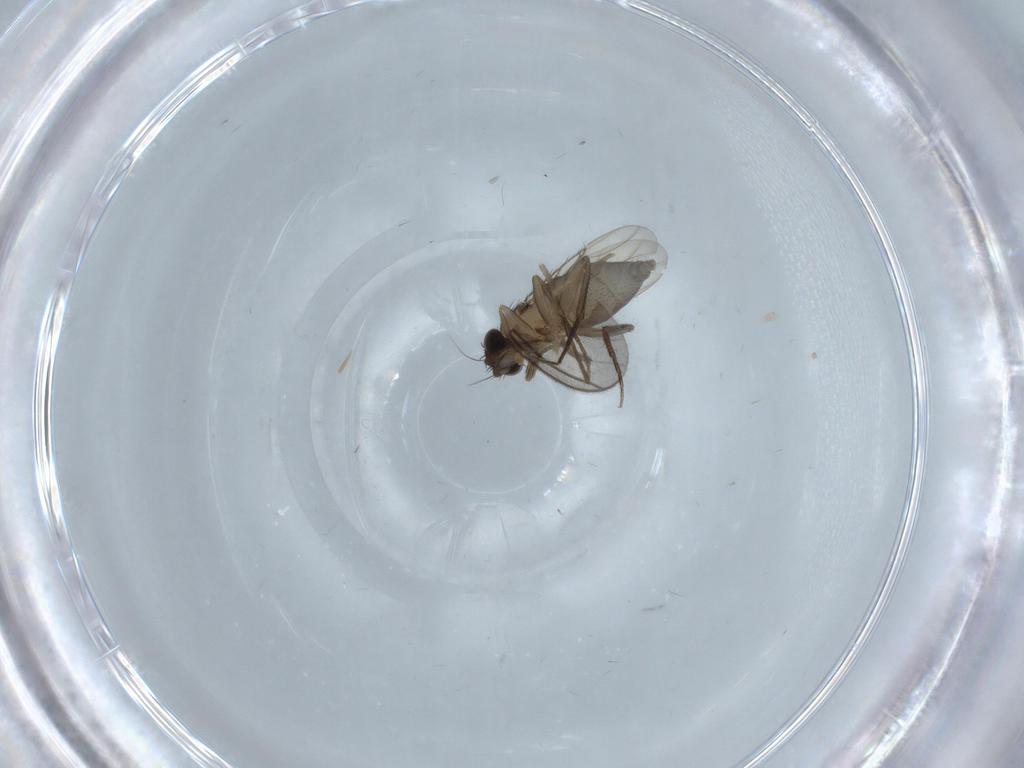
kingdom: Animalia
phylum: Arthropoda
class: Insecta
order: Diptera
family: Phoridae
